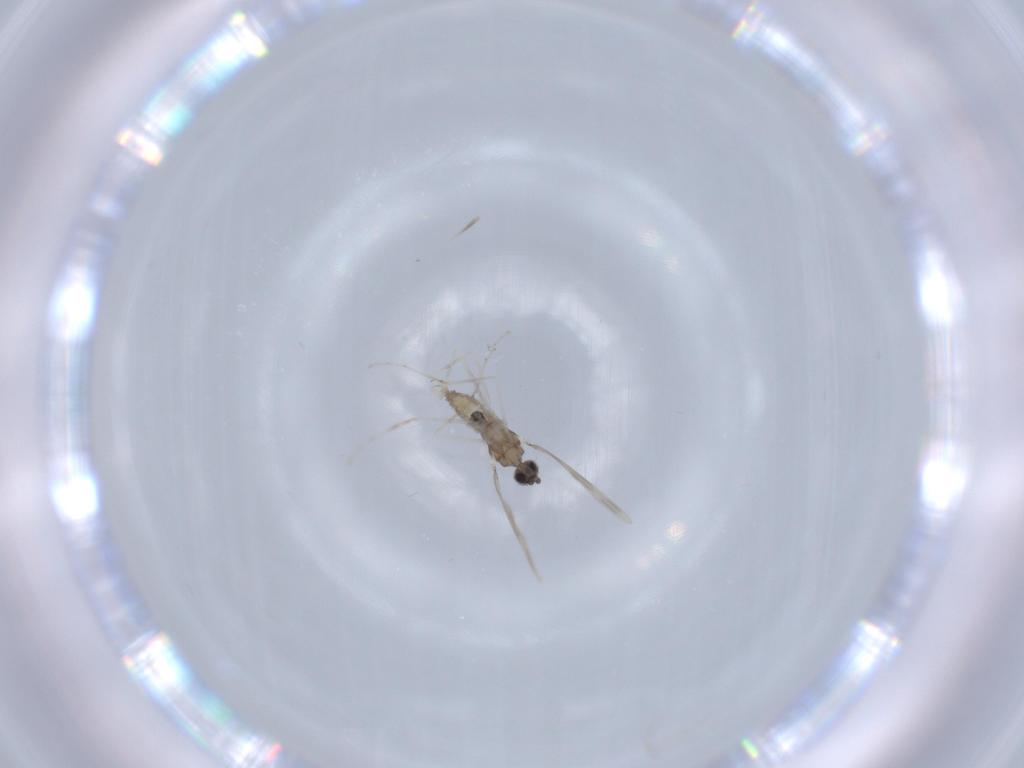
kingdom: Animalia
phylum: Arthropoda
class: Insecta
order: Diptera
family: Cecidomyiidae
